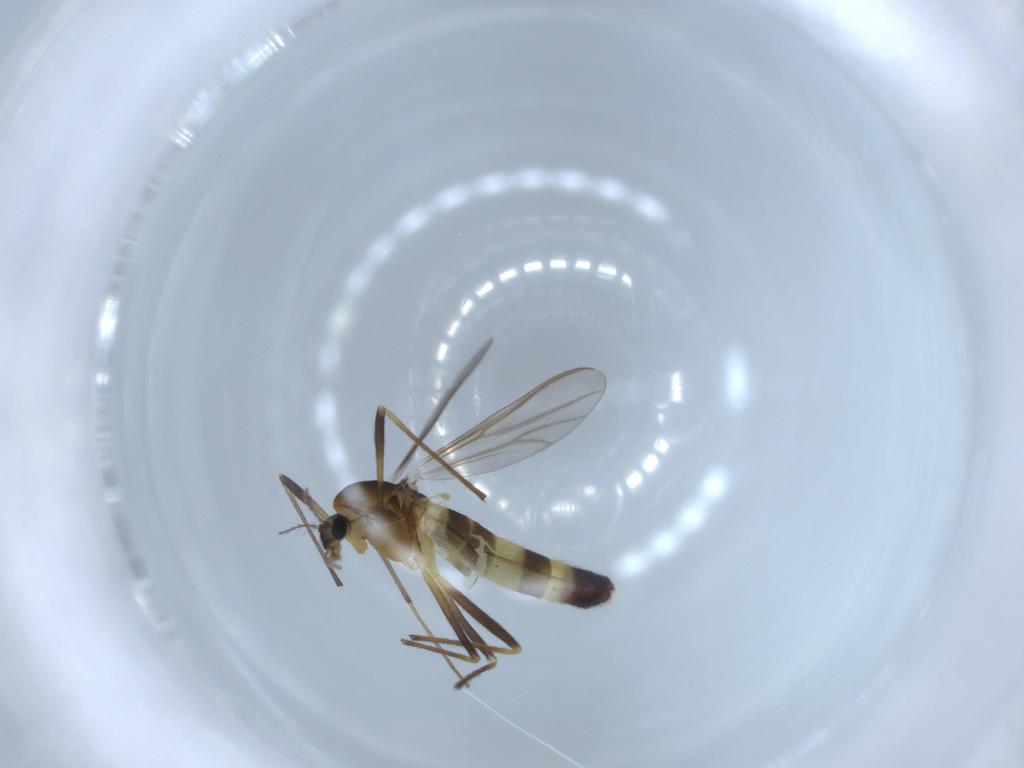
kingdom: Animalia
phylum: Arthropoda
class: Insecta
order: Diptera
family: Chironomidae
